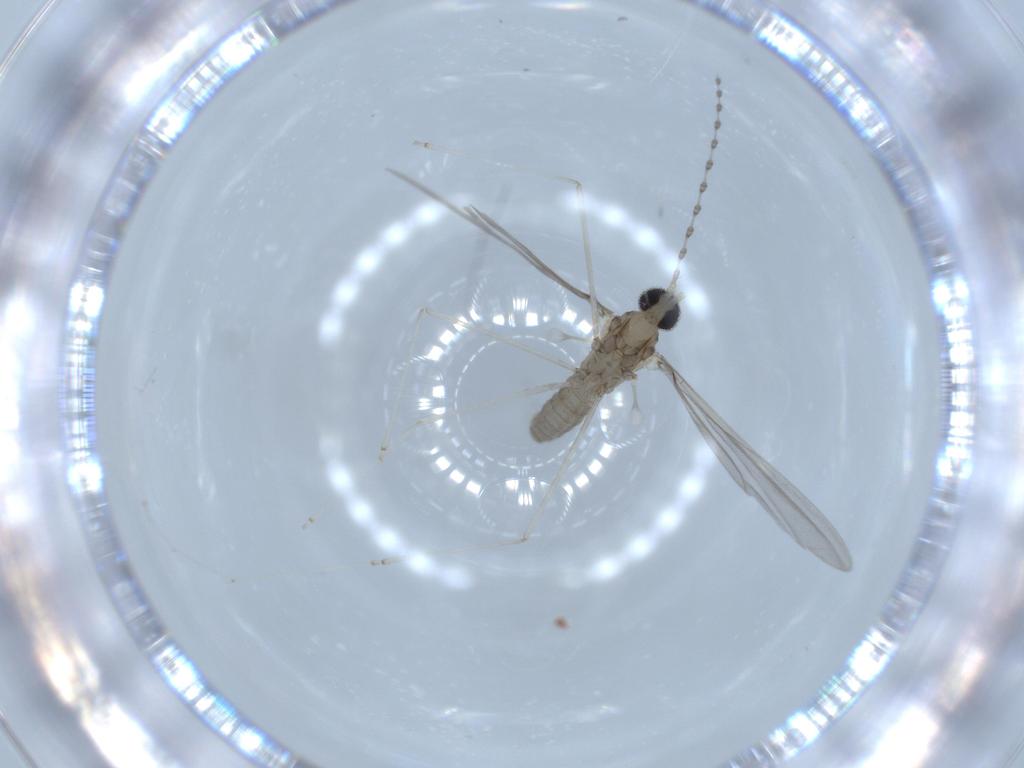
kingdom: Animalia
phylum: Arthropoda
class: Insecta
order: Diptera
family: Cecidomyiidae
